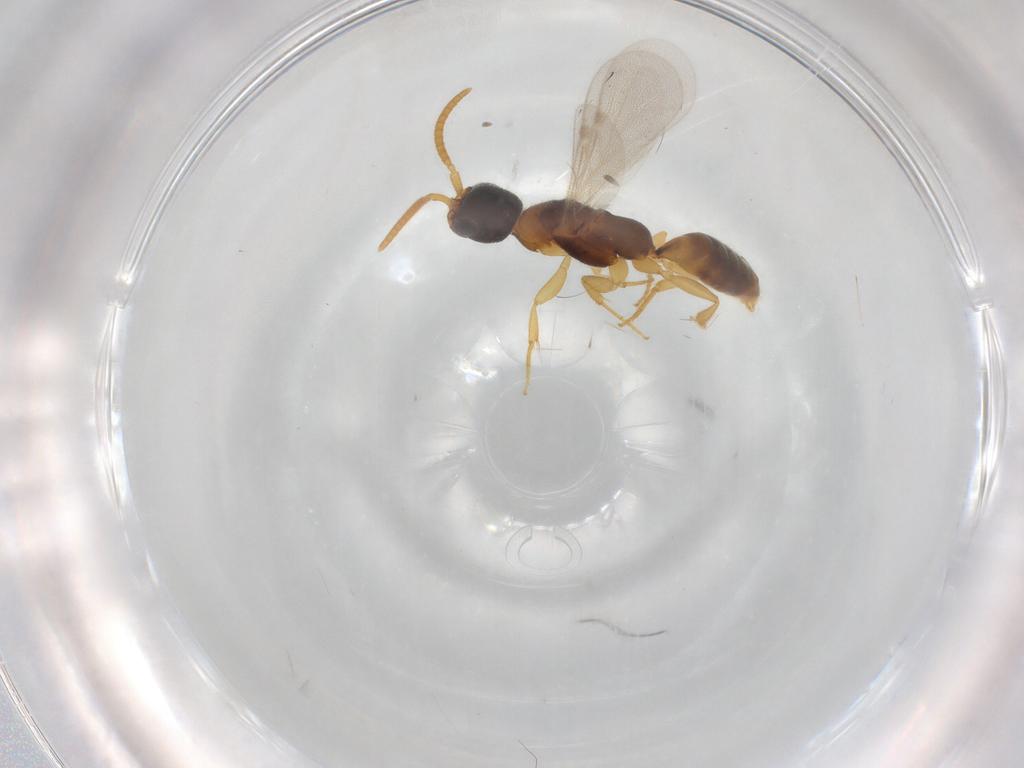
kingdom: Animalia
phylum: Arthropoda
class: Insecta
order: Hymenoptera
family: Bethylidae
